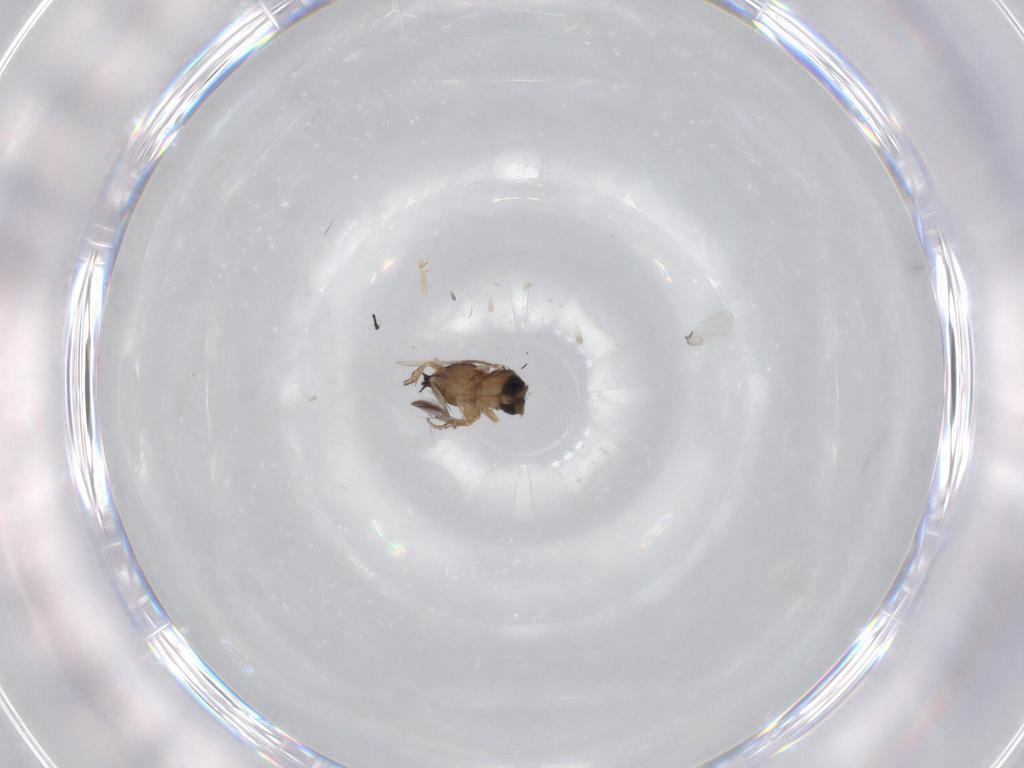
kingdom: Animalia
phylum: Arthropoda
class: Insecta
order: Diptera
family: Phoridae
